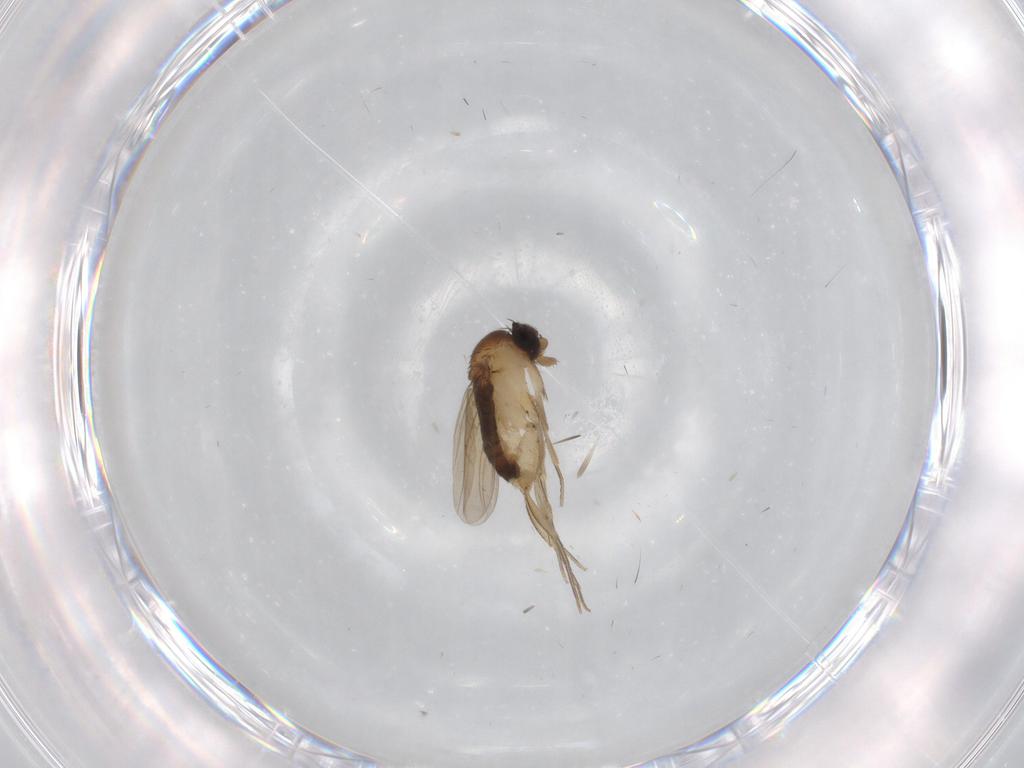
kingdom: Animalia
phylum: Arthropoda
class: Insecta
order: Diptera
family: Phoridae
